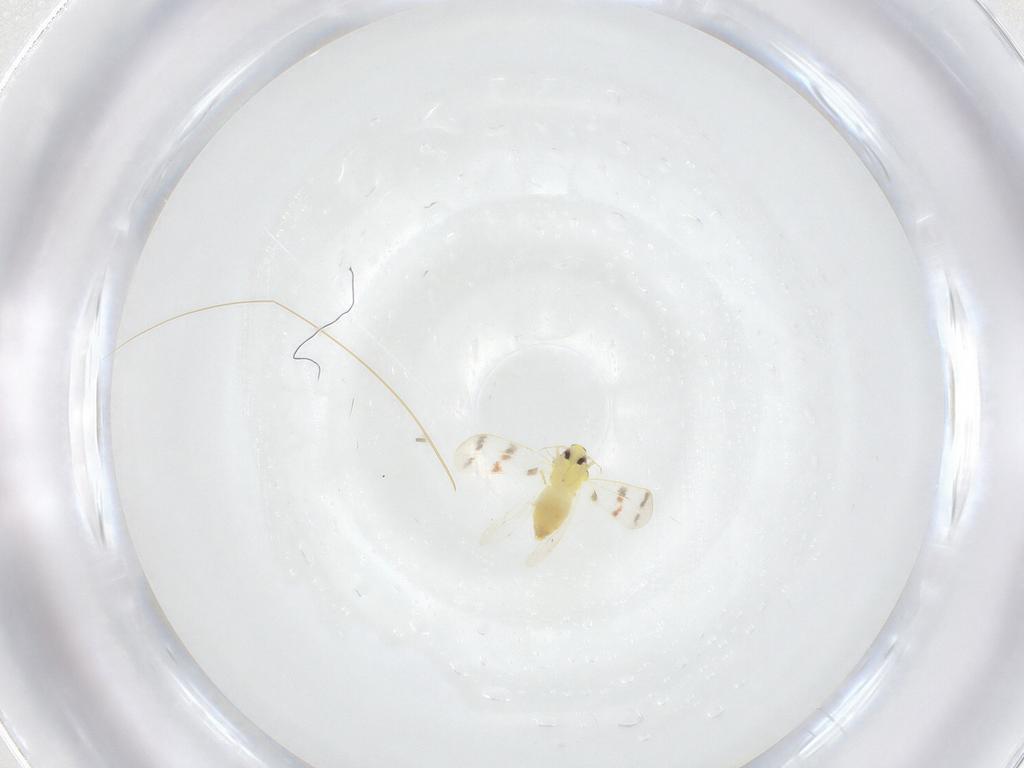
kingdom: Animalia
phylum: Arthropoda
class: Insecta
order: Hemiptera
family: Aleyrodidae
